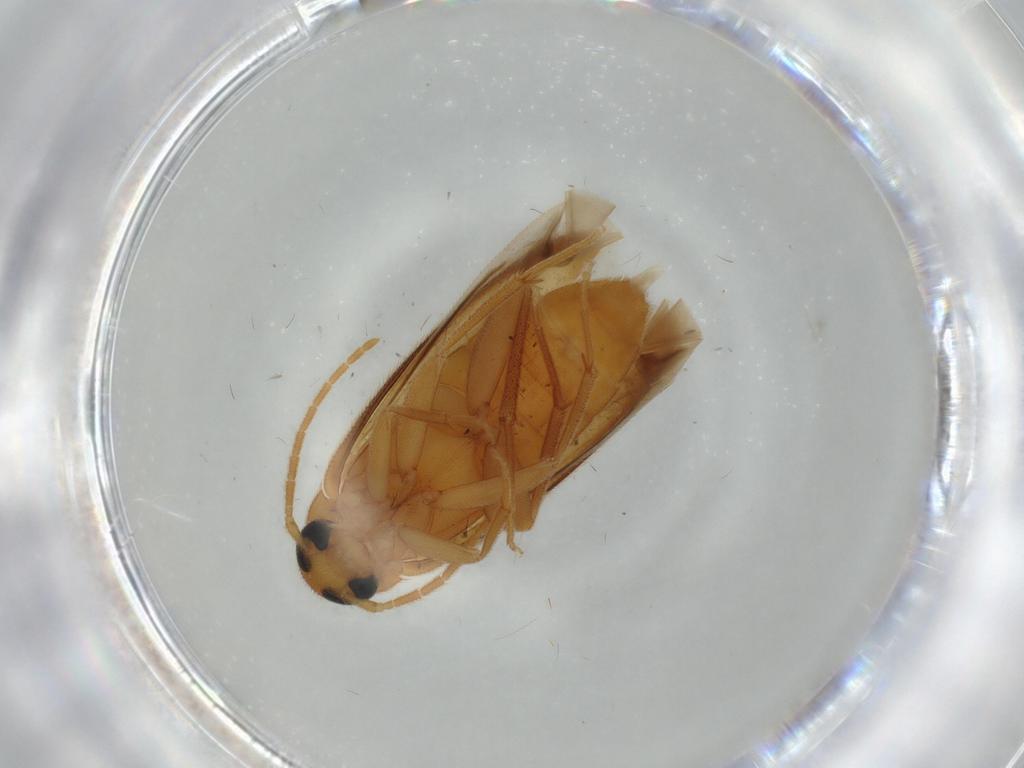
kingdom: Animalia
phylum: Arthropoda
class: Insecta
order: Coleoptera
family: Scraptiidae
